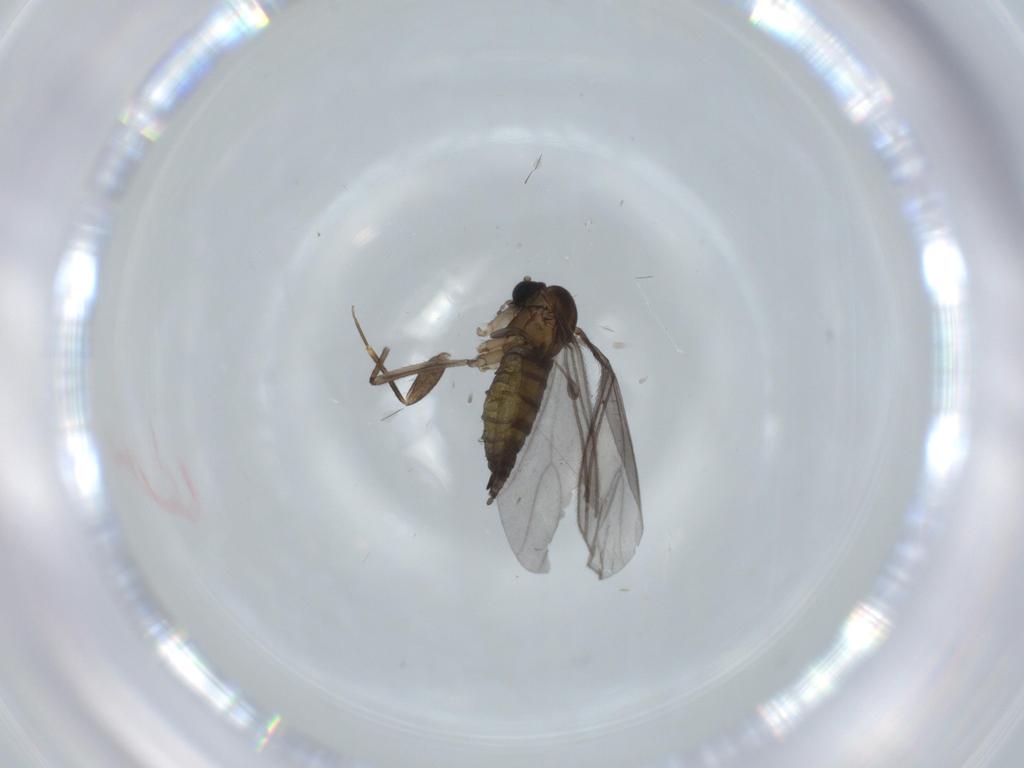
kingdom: Animalia
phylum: Arthropoda
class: Insecta
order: Diptera
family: Sciaridae
